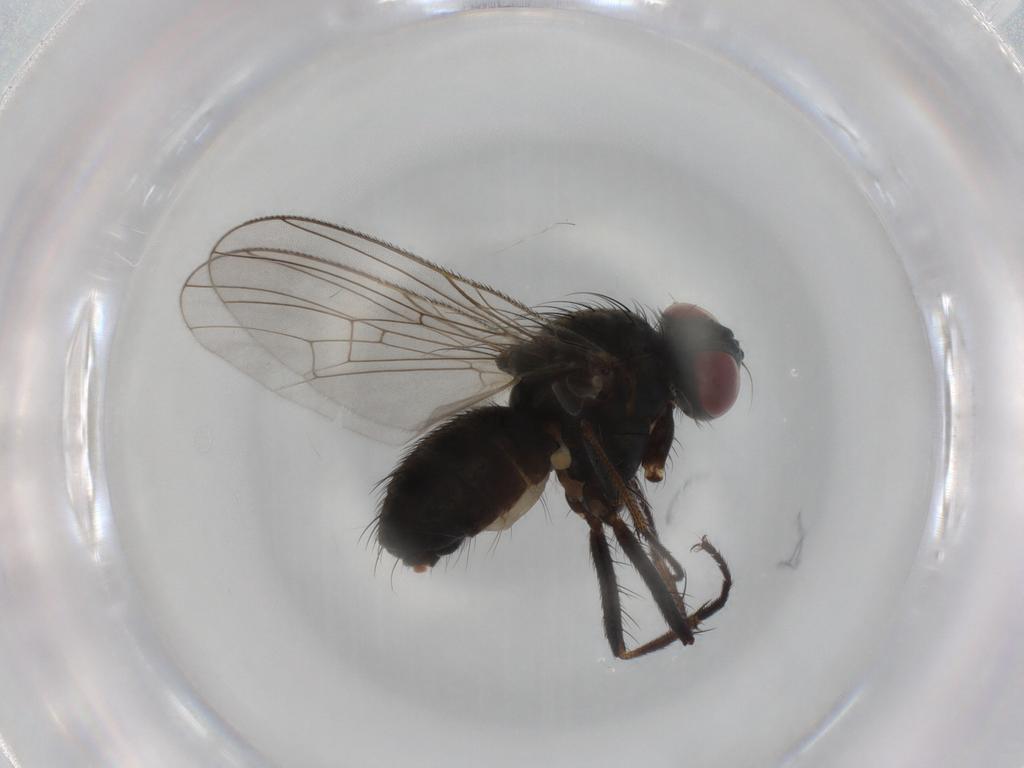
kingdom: Animalia
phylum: Arthropoda
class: Insecta
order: Diptera
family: Muscidae
